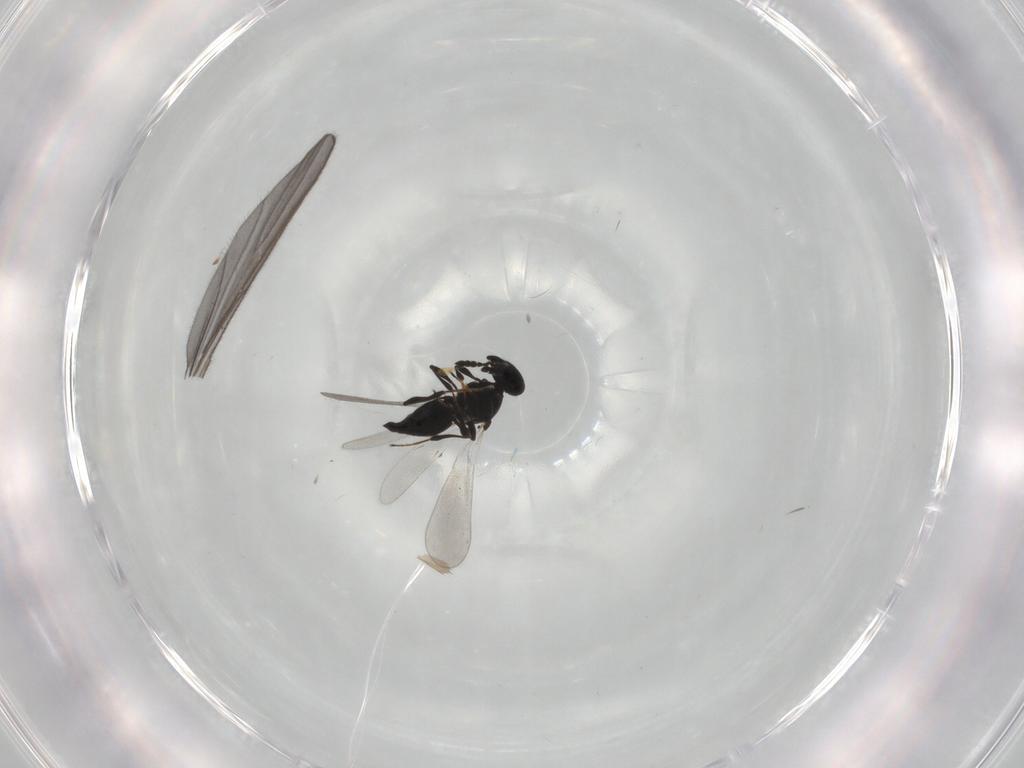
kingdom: Animalia
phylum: Arthropoda
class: Insecta
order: Hymenoptera
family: Platygastridae
